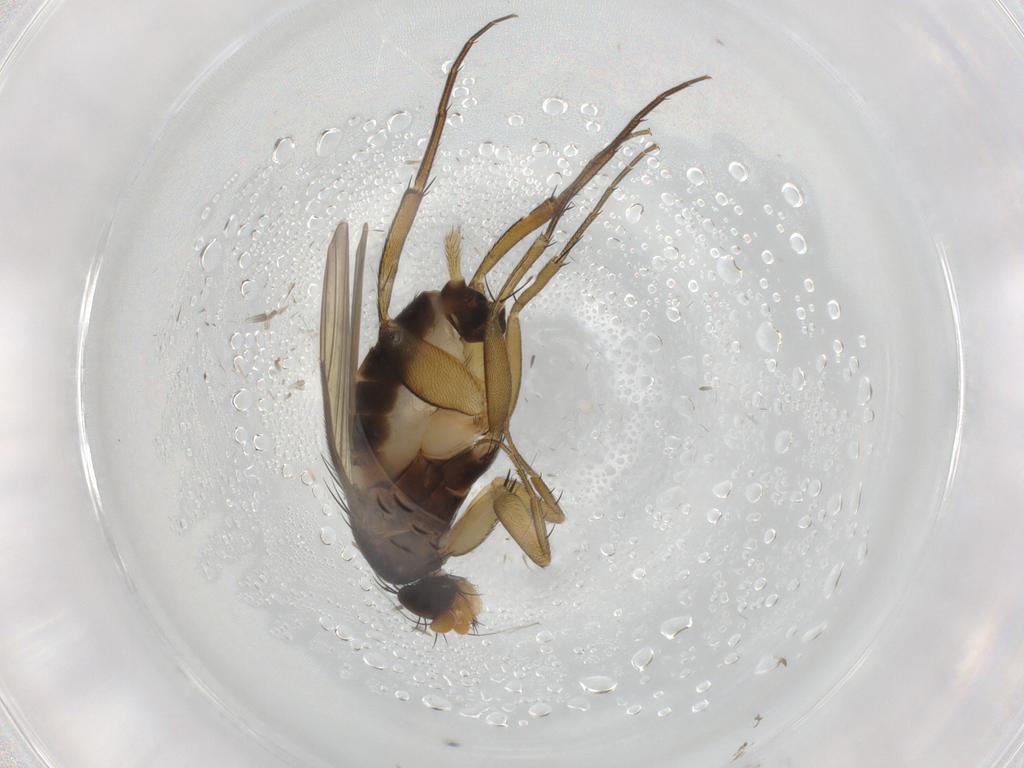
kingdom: Animalia
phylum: Arthropoda
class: Insecta
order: Diptera
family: Phoridae
